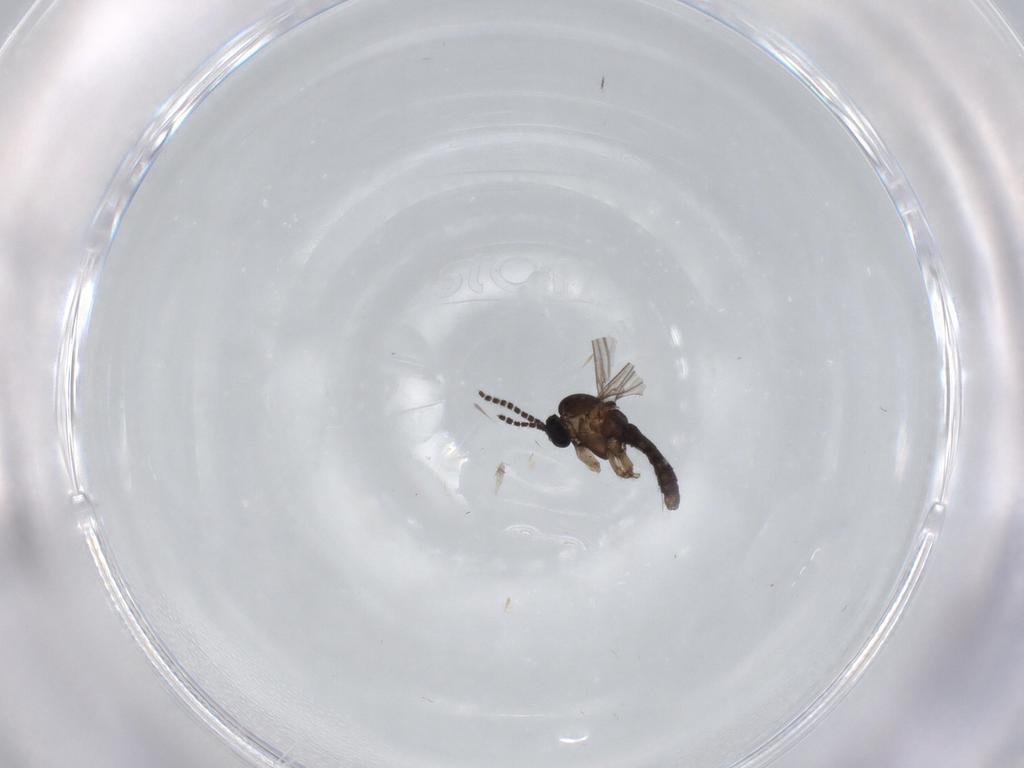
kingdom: Animalia
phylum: Arthropoda
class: Insecta
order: Diptera
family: Cecidomyiidae
